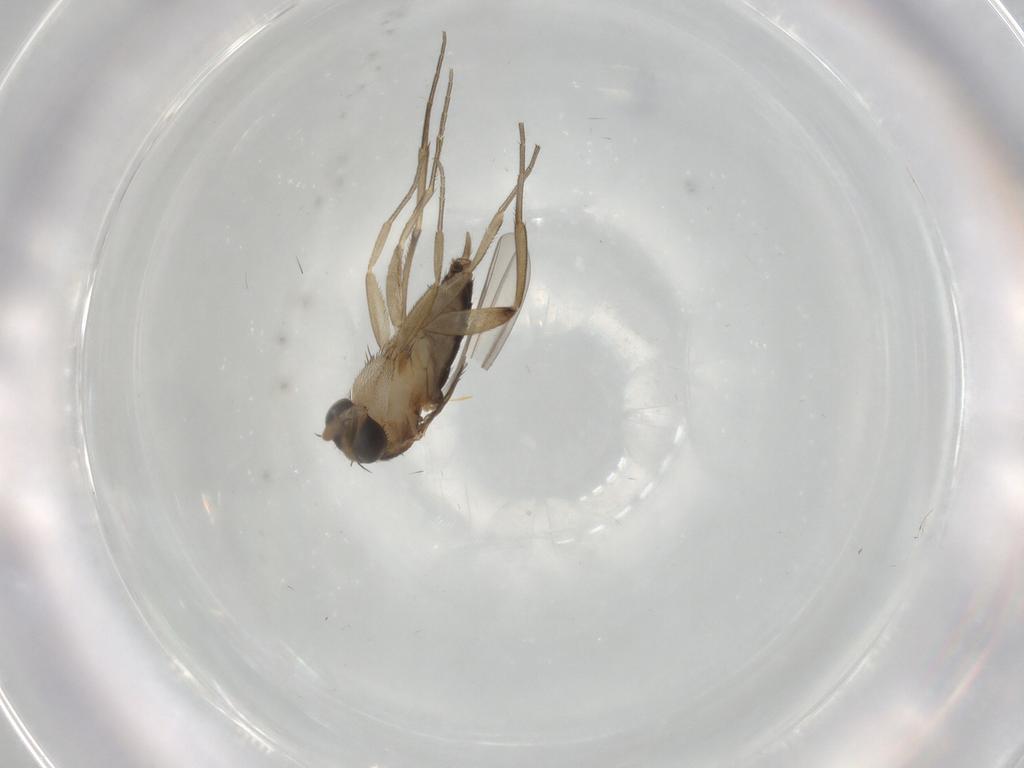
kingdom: Animalia
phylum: Arthropoda
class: Insecta
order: Diptera
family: Phoridae
